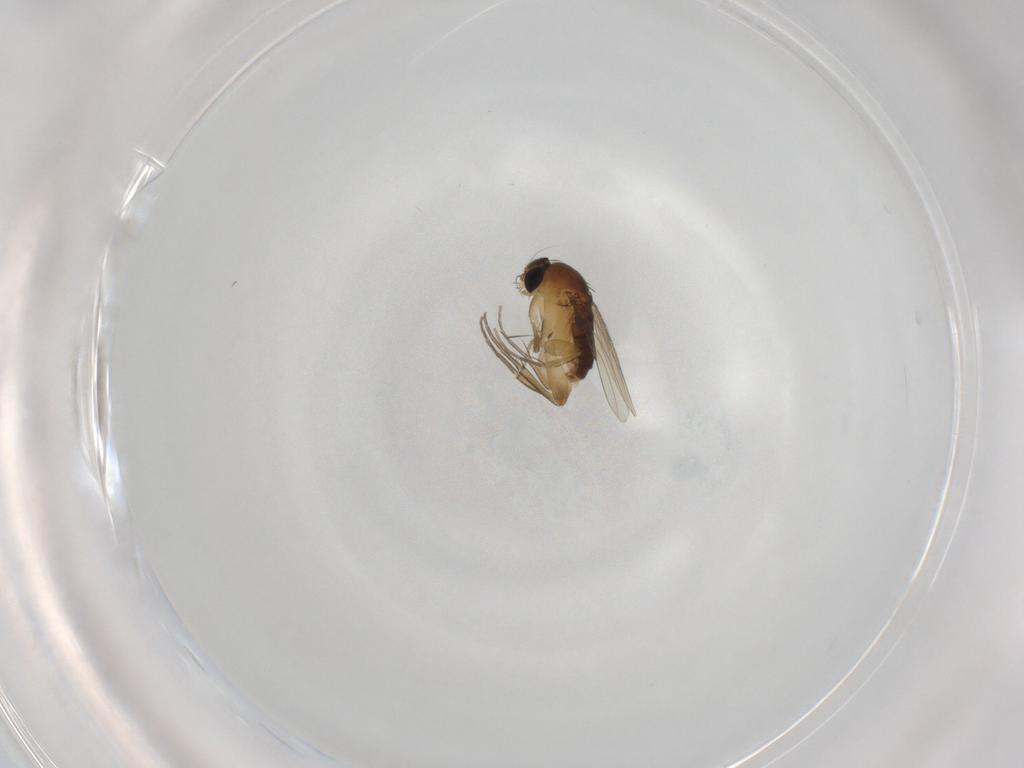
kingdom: Animalia
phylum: Arthropoda
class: Insecta
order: Diptera
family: Phoridae
